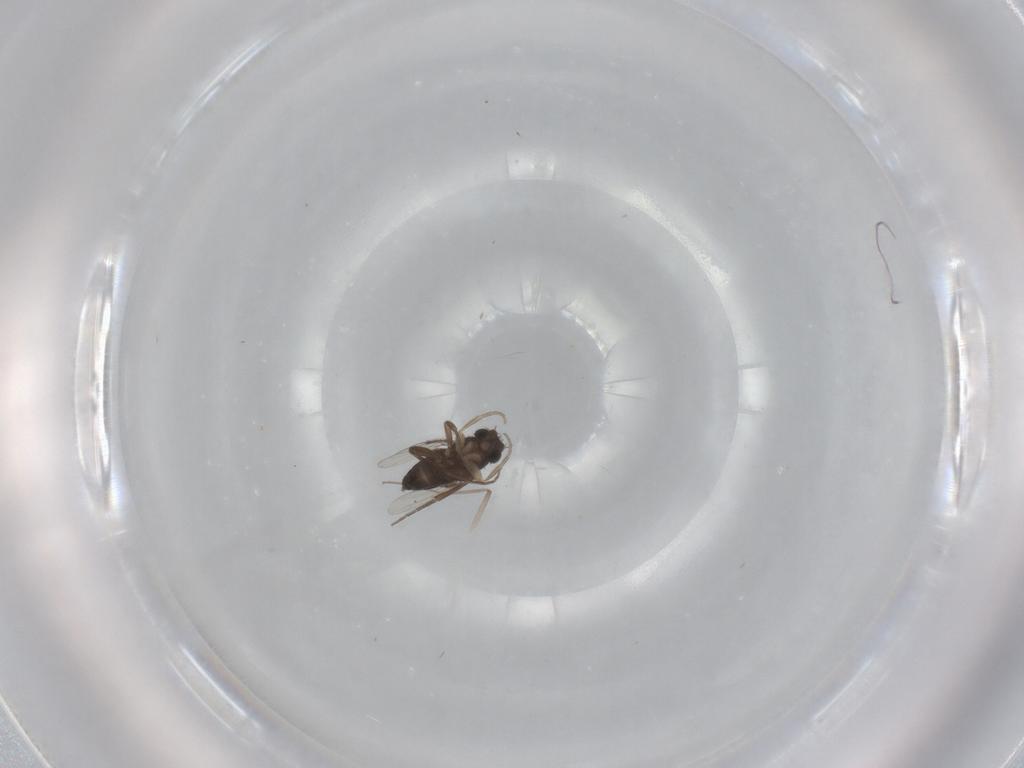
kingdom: Animalia
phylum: Arthropoda
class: Insecta
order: Diptera
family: Chironomidae
